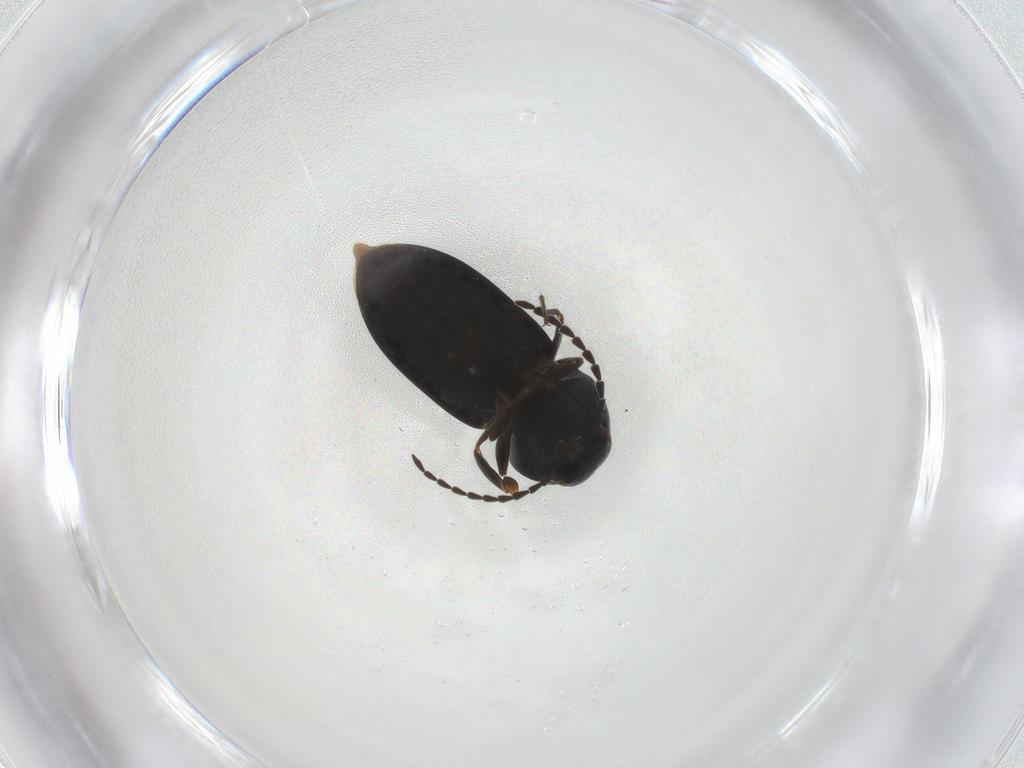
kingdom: Animalia
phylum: Arthropoda
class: Insecta
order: Coleoptera
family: Elateridae
